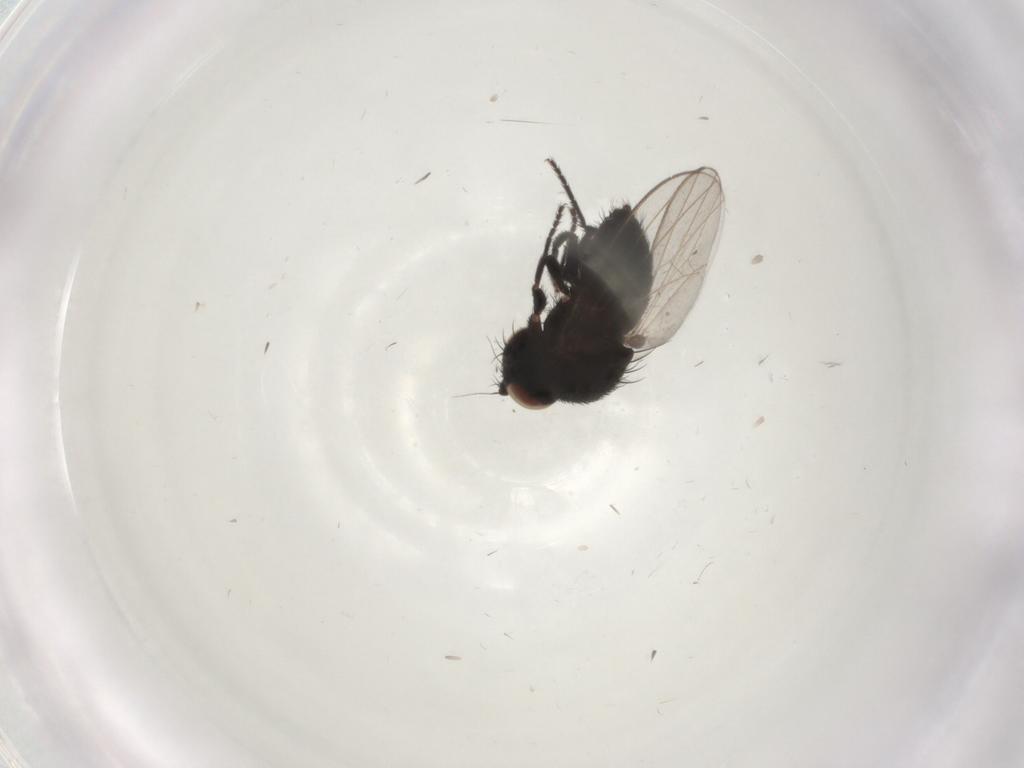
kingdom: Animalia
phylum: Arthropoda
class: Insecta
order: Diptera
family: Milichiidae
